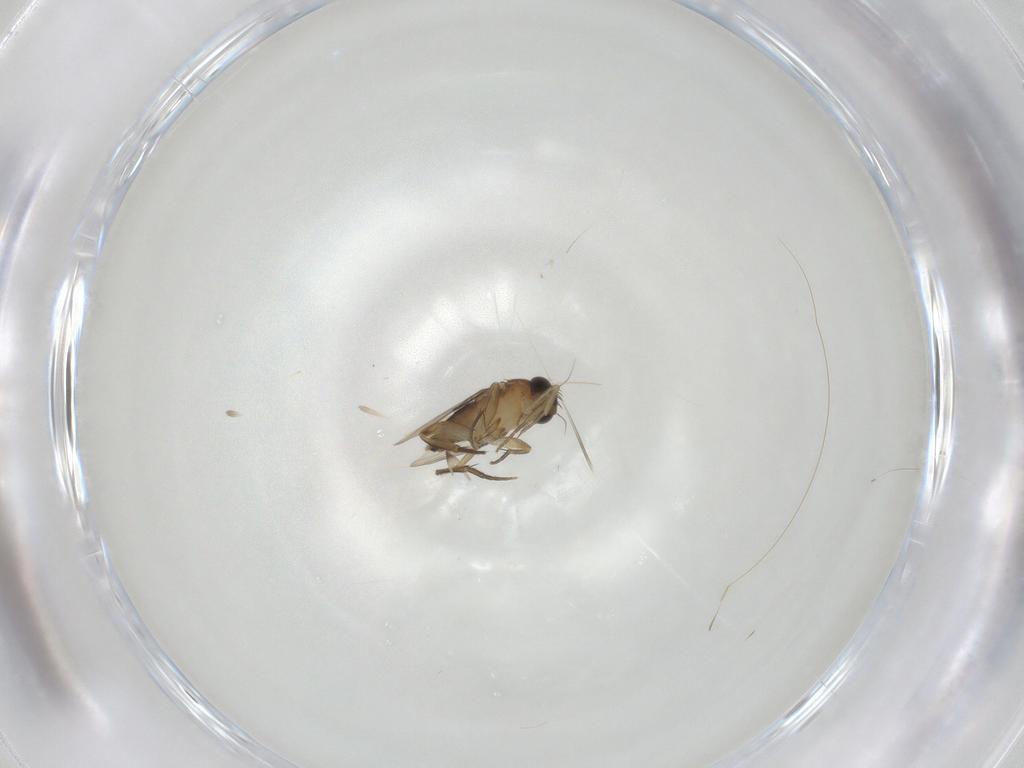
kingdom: Animalia
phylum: Arthropoda
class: Insecta
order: Diptera
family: Phoridae
